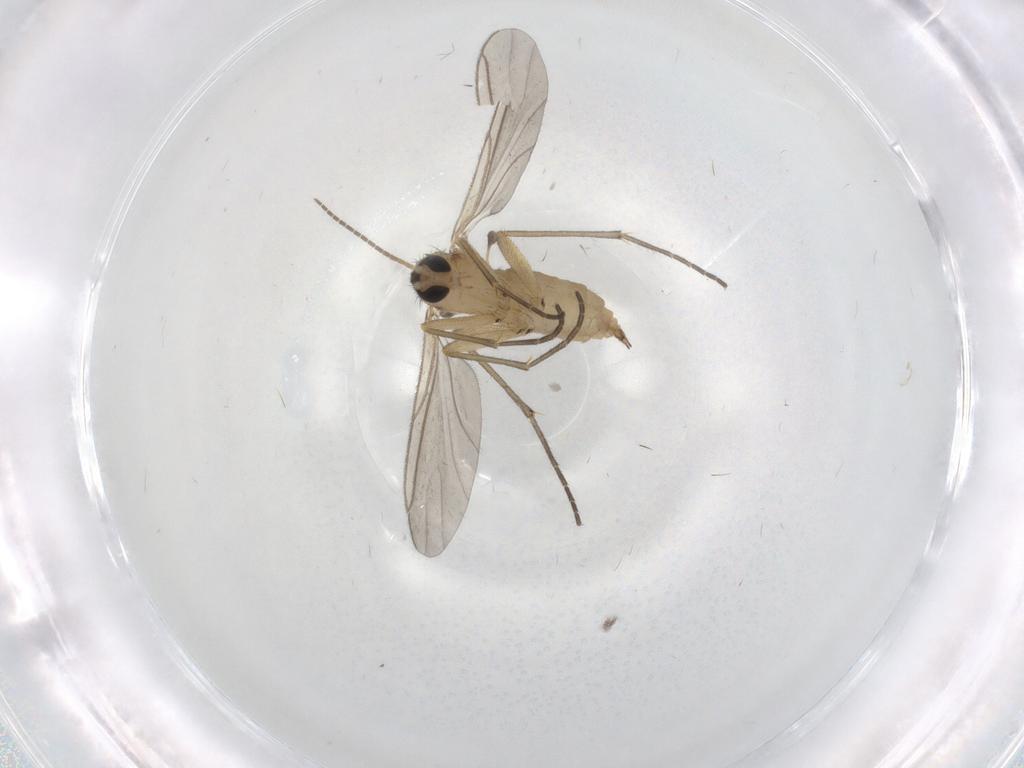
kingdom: Animalia
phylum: Arthropoda
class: Insecta
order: Diptera
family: Sciaridae
